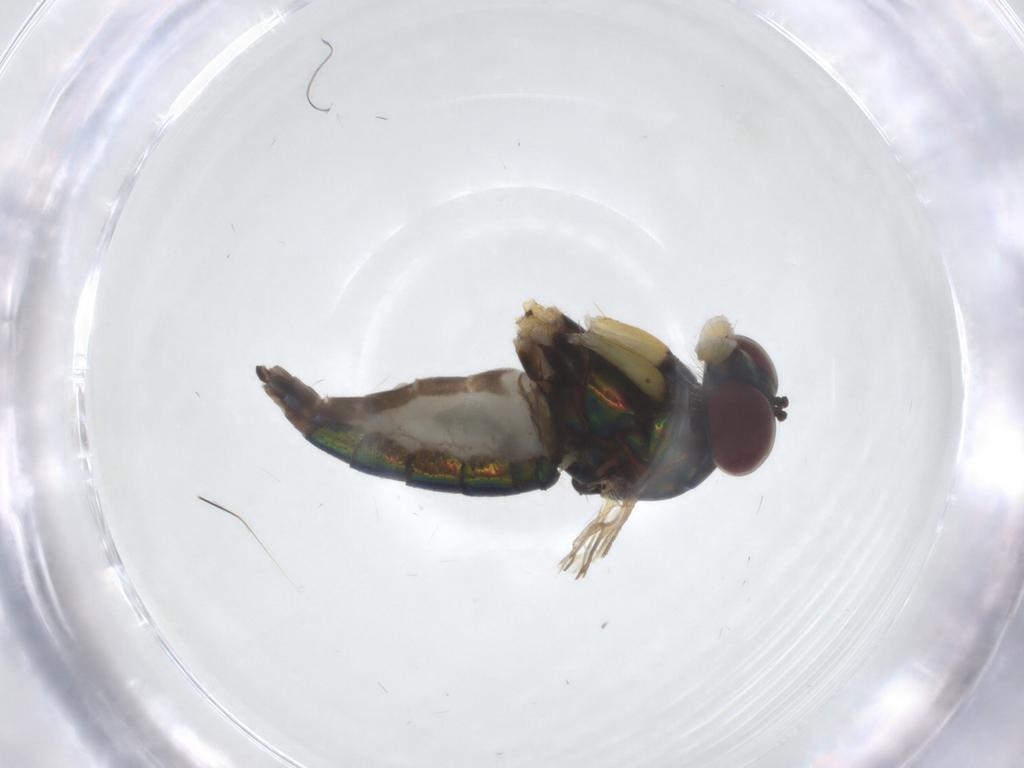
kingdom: Animalia
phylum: Arthropoda
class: Insecta
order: Diptera
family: Dolichopodidae
